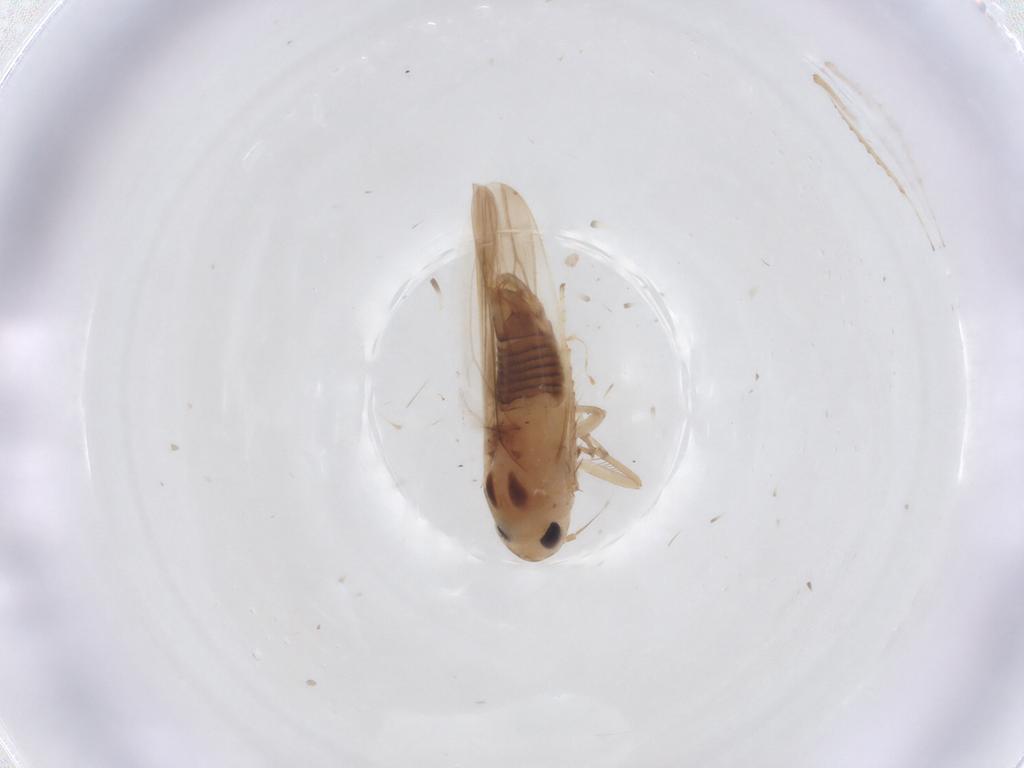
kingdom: Animalia
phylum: Arthropoda
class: Insecta
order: Hemiptera
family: Cicadellidae
